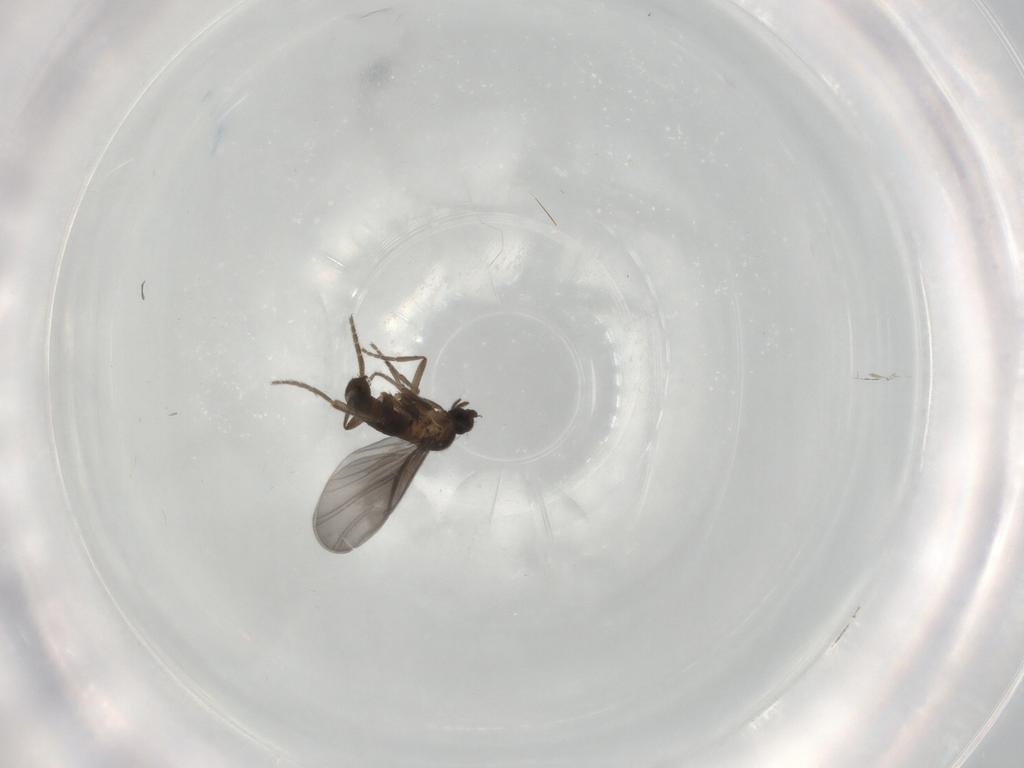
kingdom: Animalia
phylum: Arthropoda
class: Insecta
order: Diptera
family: Phoridae
